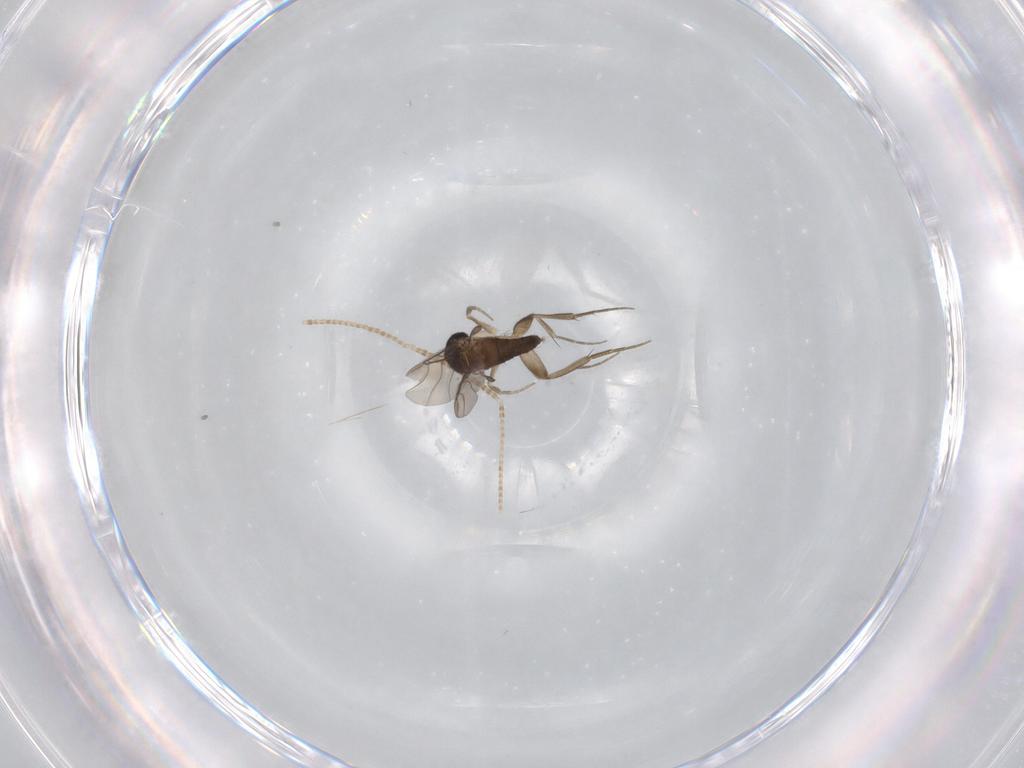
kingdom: Animalia
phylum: Arthropoda
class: Insecta
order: Diptera
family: Phoridae
